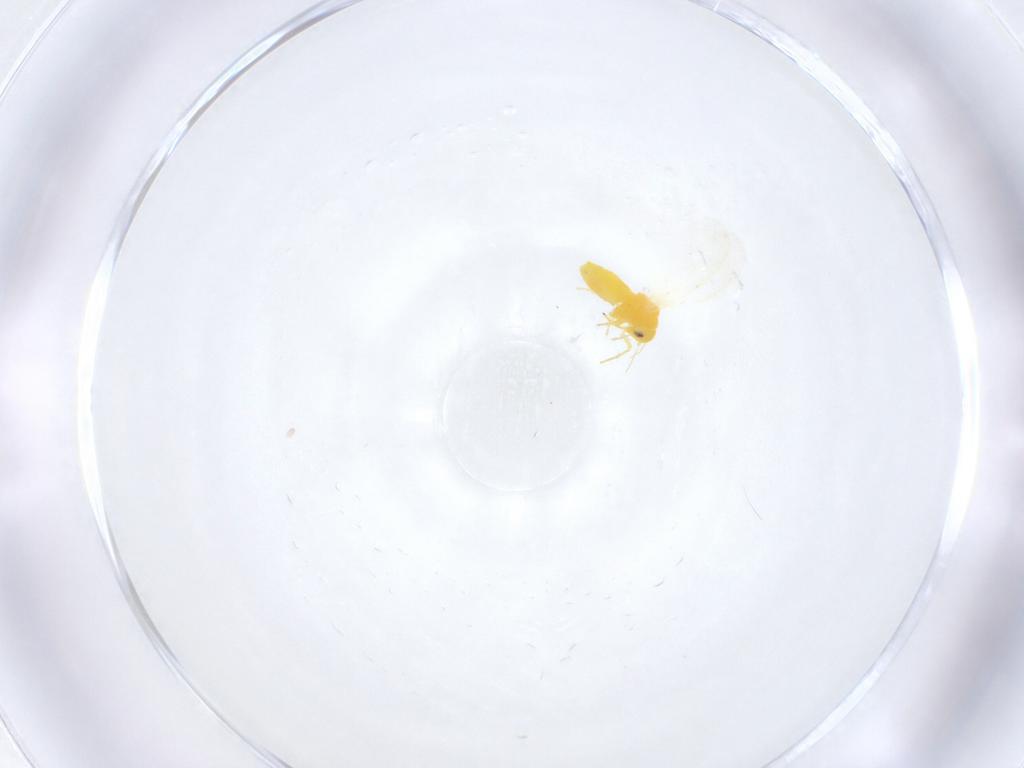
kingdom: Animalia
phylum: Arthropoda
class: Insecta
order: Hemiptera
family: Aleyrodidae
